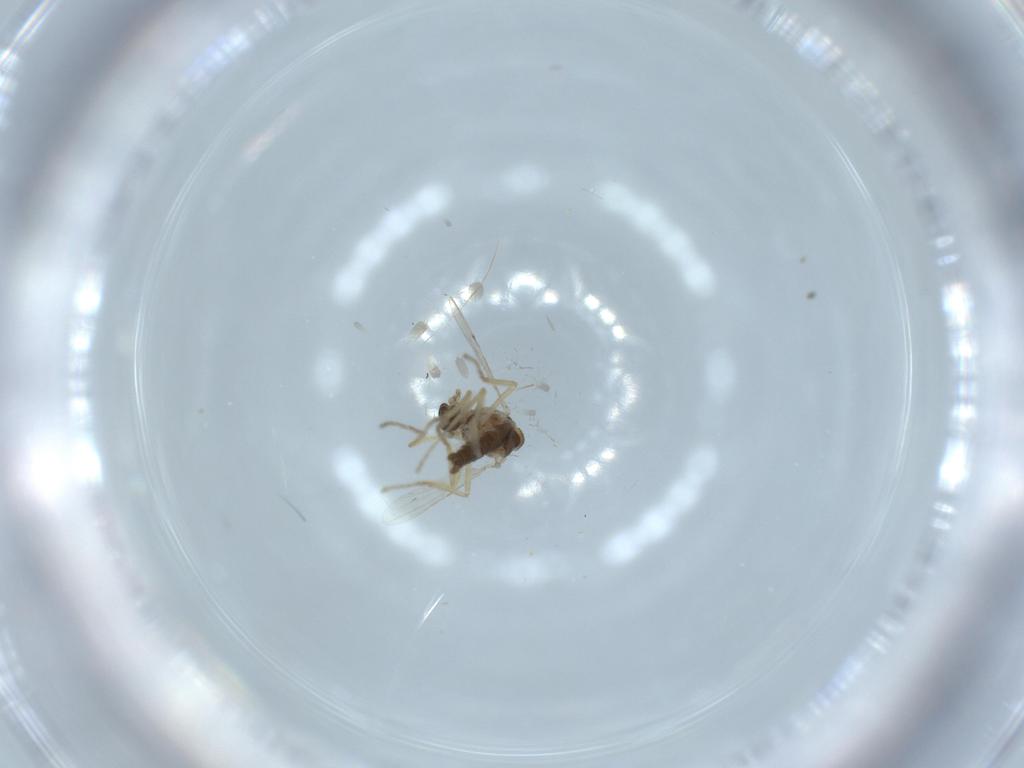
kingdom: Animalia
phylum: Arthropoda
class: Insecta
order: Diptera
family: Ceratopogonidae
